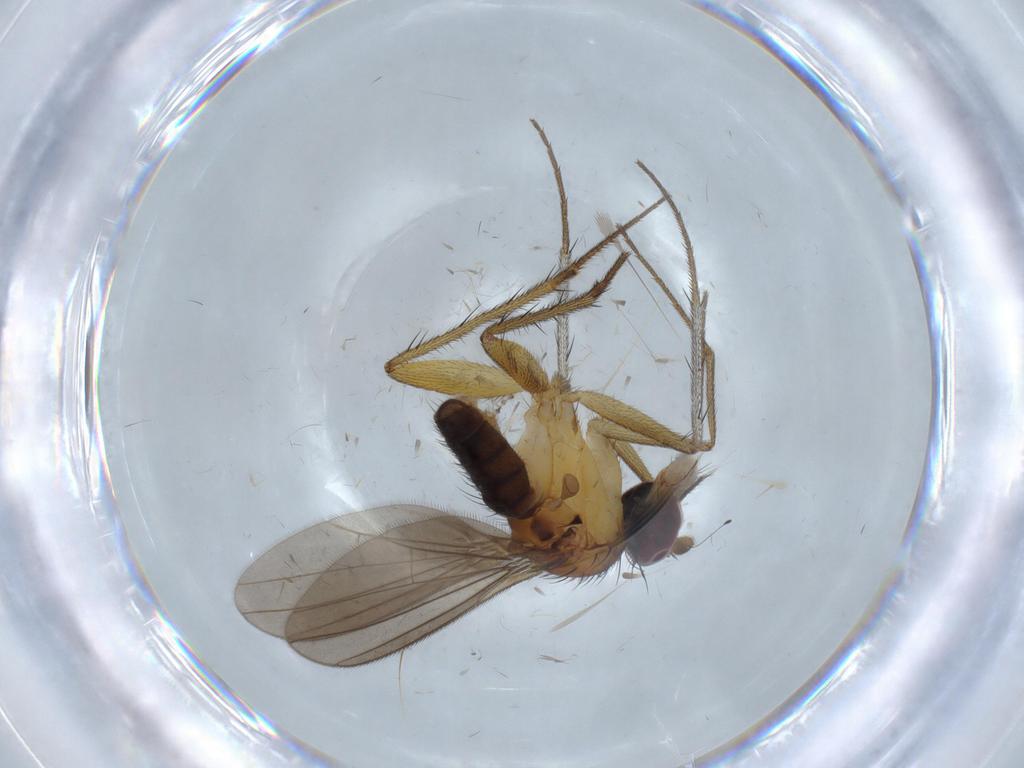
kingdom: Animalia
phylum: Arthropoda
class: Insecta
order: Diptera
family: Dolichopodidae
